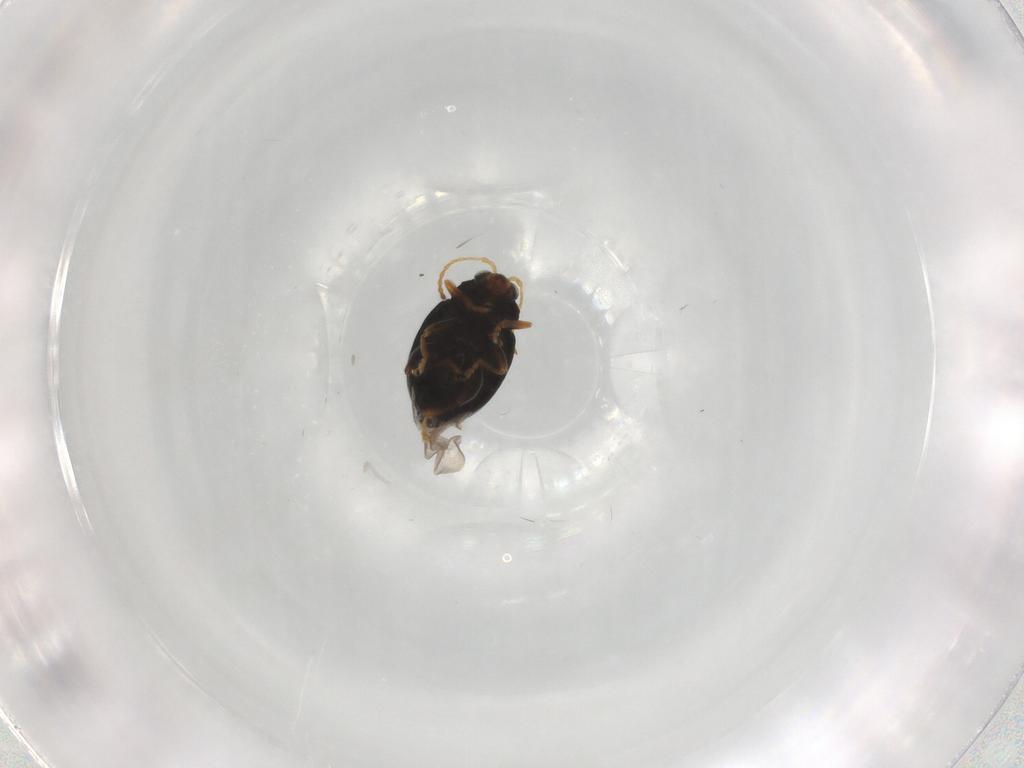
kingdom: Animalia
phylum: Arthropoda
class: Insecta
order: Coleoptera
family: Chrysomelidae
